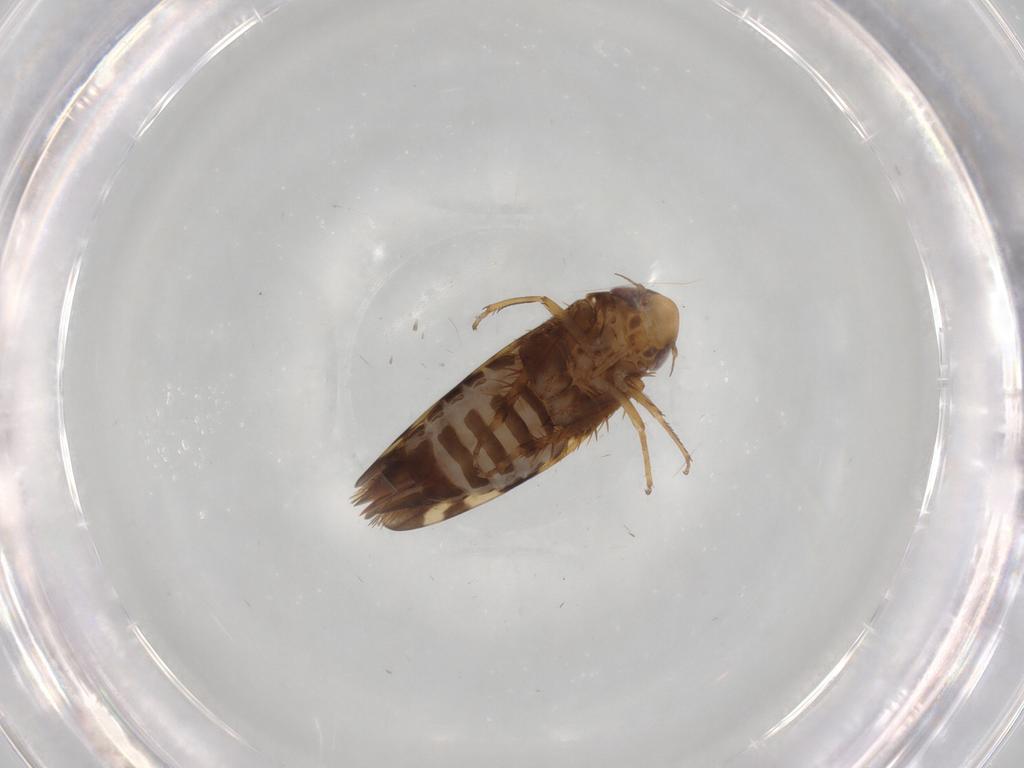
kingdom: Animalia
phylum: Arthropoda
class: Insecta
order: Hemiptera
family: Cicadellidae
